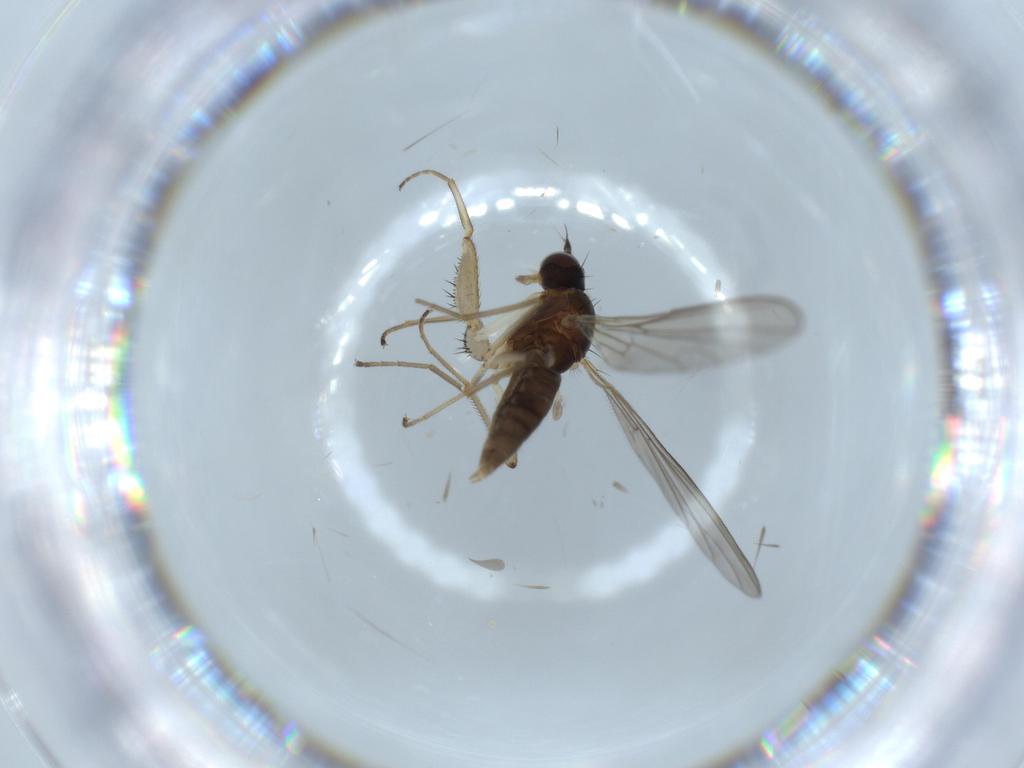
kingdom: Animalia
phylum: Arthropoda
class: Insecta
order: Diptera
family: Empididae
